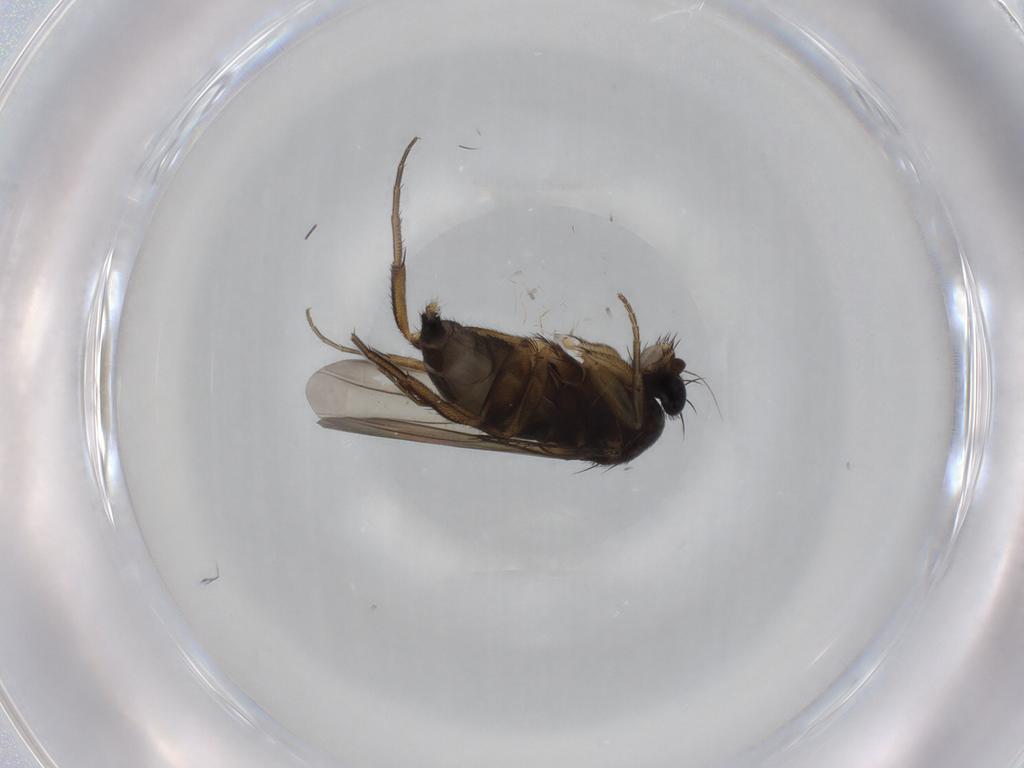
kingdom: Animalia
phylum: Arthropoda
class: Insecta
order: Diptera
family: Phoridae
